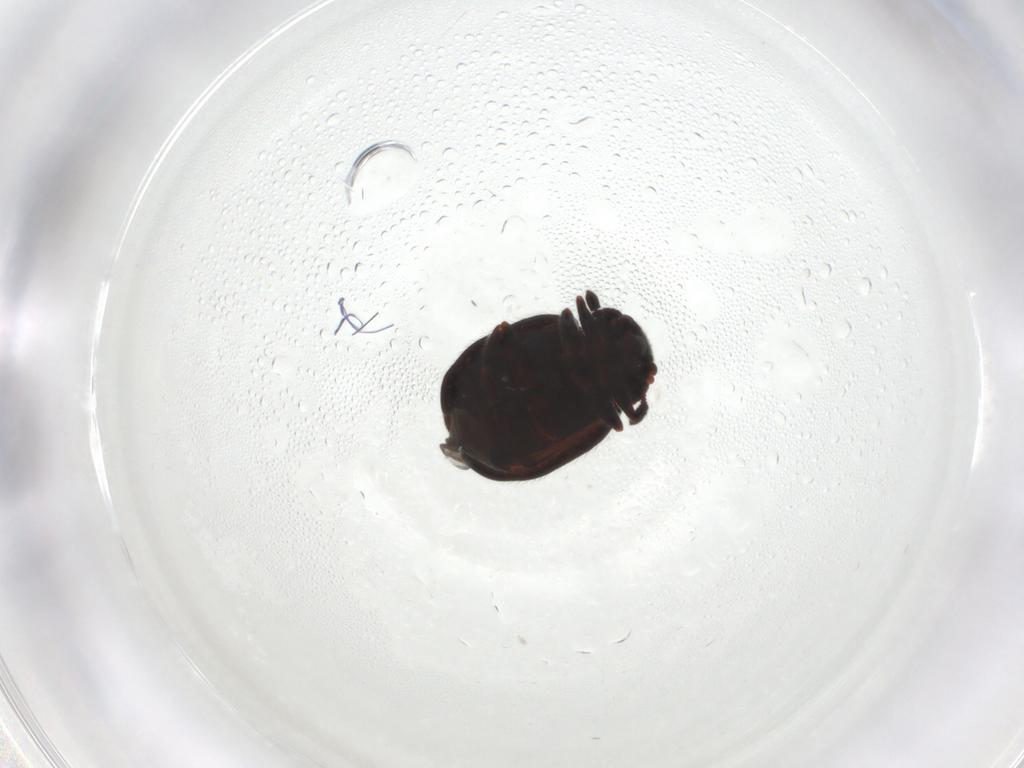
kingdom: Animalia
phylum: Arthropoda
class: Insecta
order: Coleoptera
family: Sphindidae
